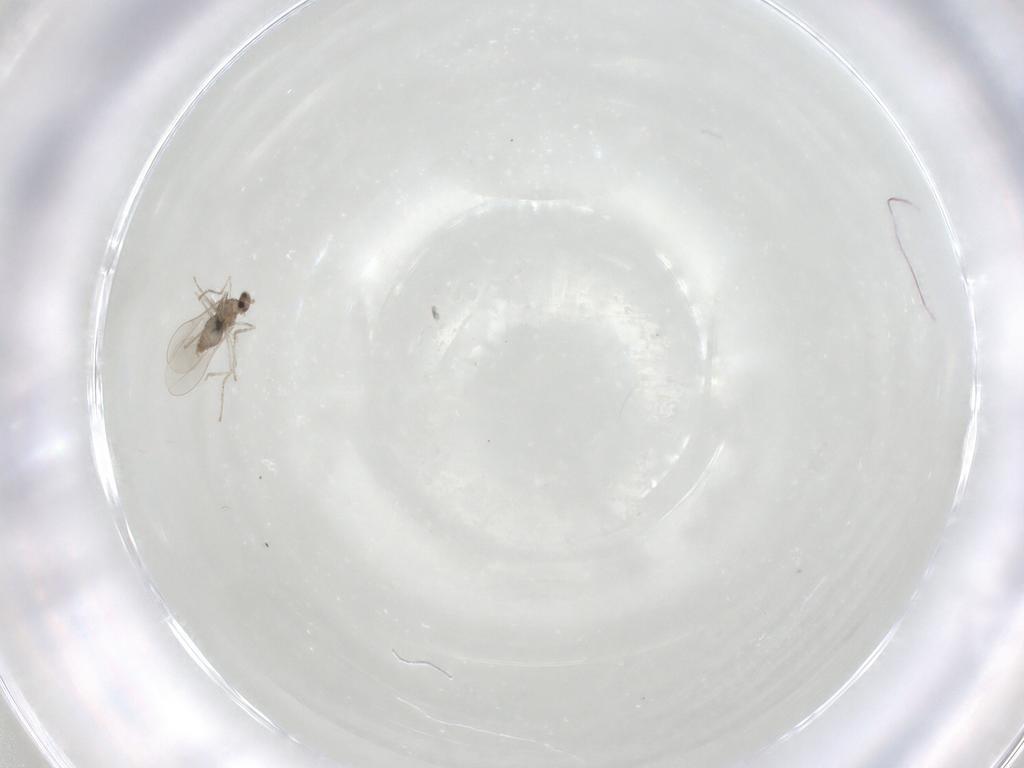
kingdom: Animalia
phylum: Arthropoda
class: Insecta
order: Diptera
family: Cecidomyiidae
